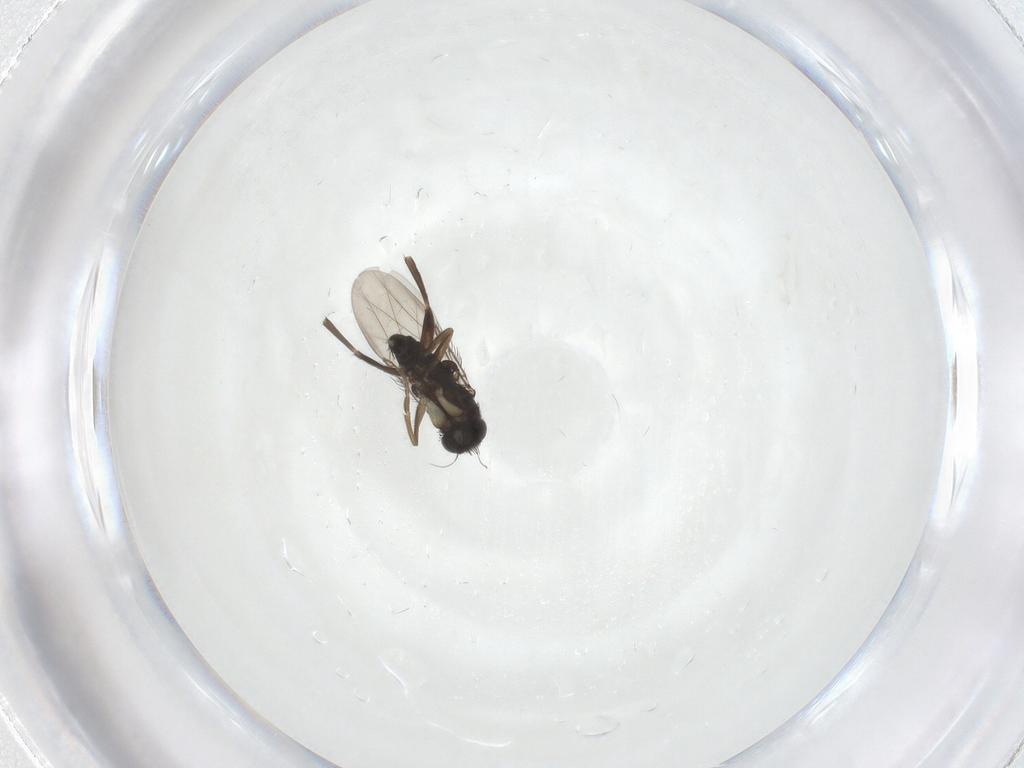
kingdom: Animalia
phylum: Arthropoda
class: Insecta
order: Diptera
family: Phoridae
